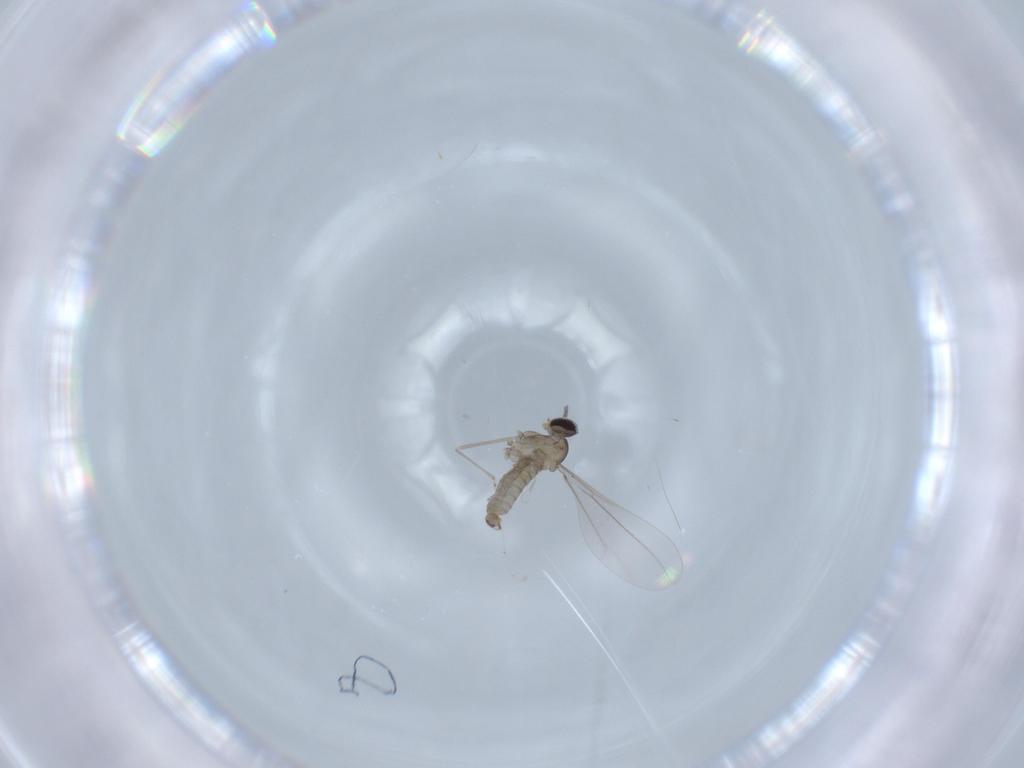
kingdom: Animalia
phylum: Arthropoda
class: Insecta
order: Diptera
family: Cecidomyiidae
